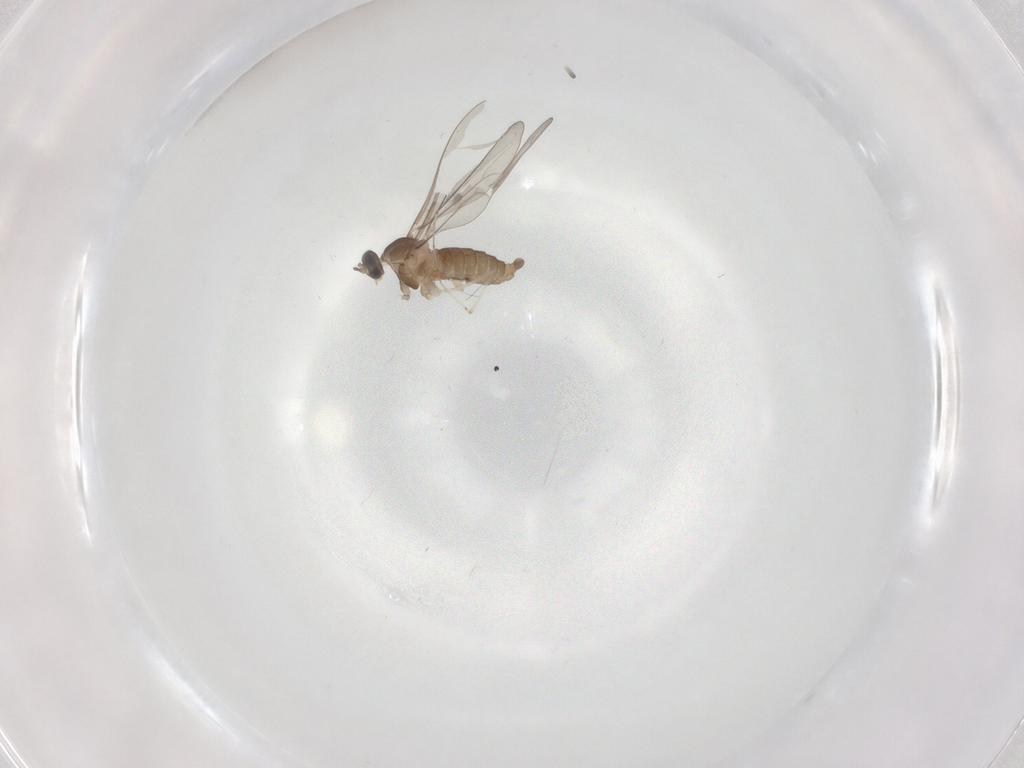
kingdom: Animalia
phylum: Arthropoda
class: Insecta
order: Diptera
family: Cecidomyiidae
